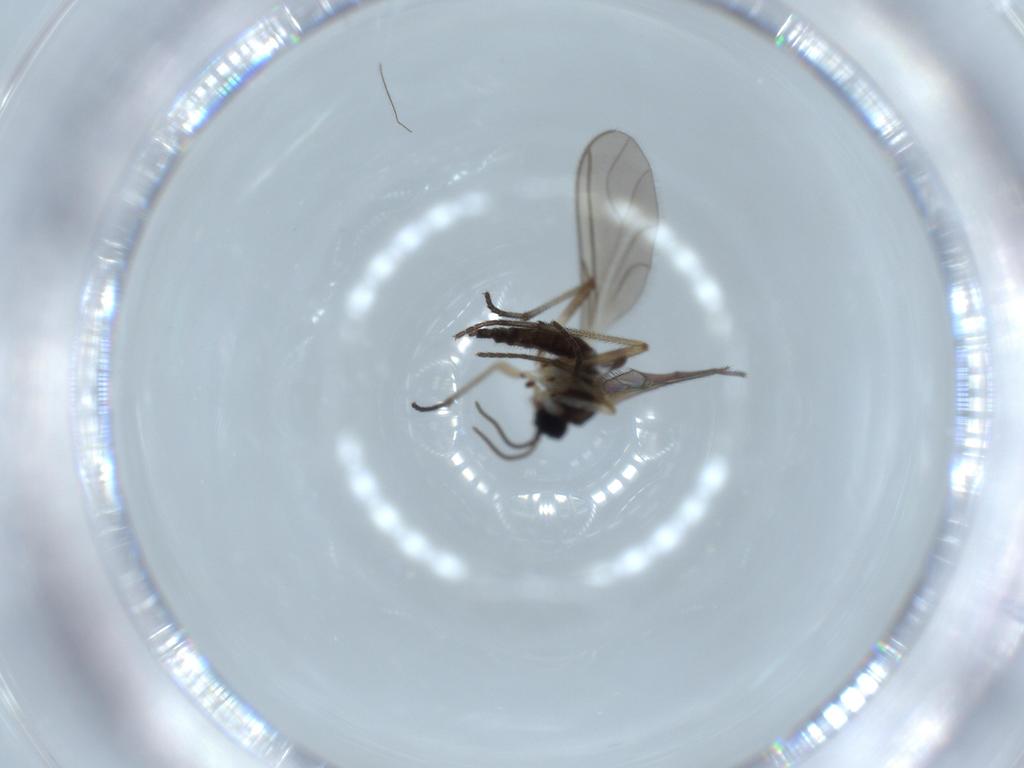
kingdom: Animalia
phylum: Arthropoda
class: Insecta
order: Diptera
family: Sciaridae
